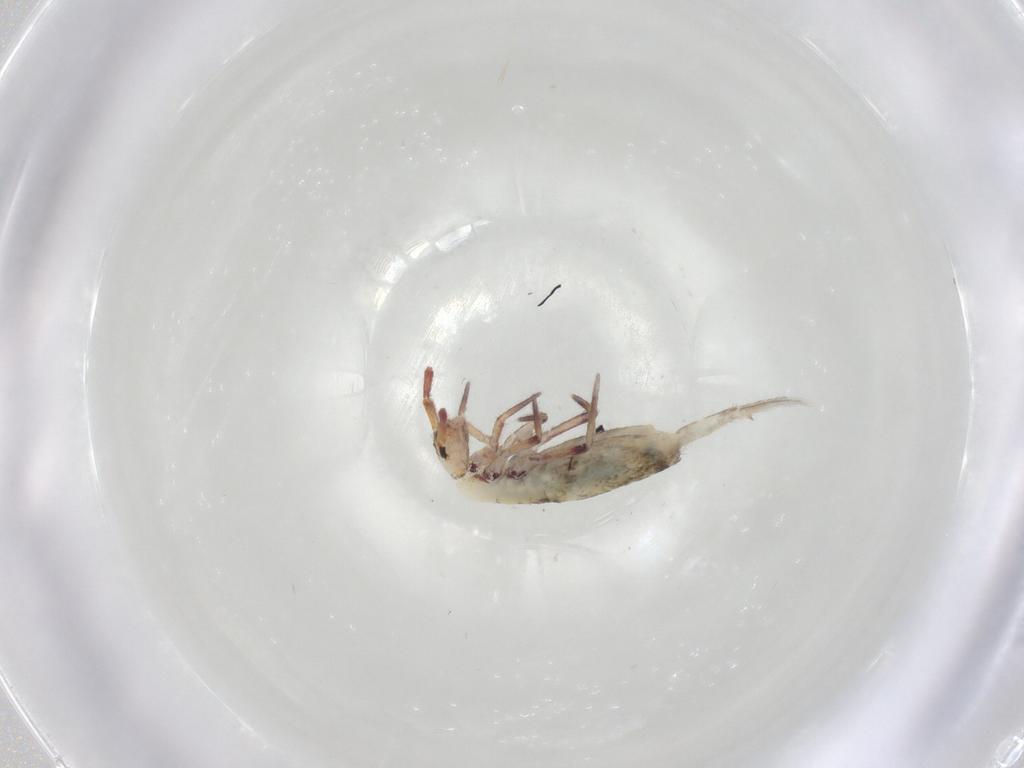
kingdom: Animalia
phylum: Arthropoda
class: Collembola
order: Entomobryomorpha
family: Entomobryidae
